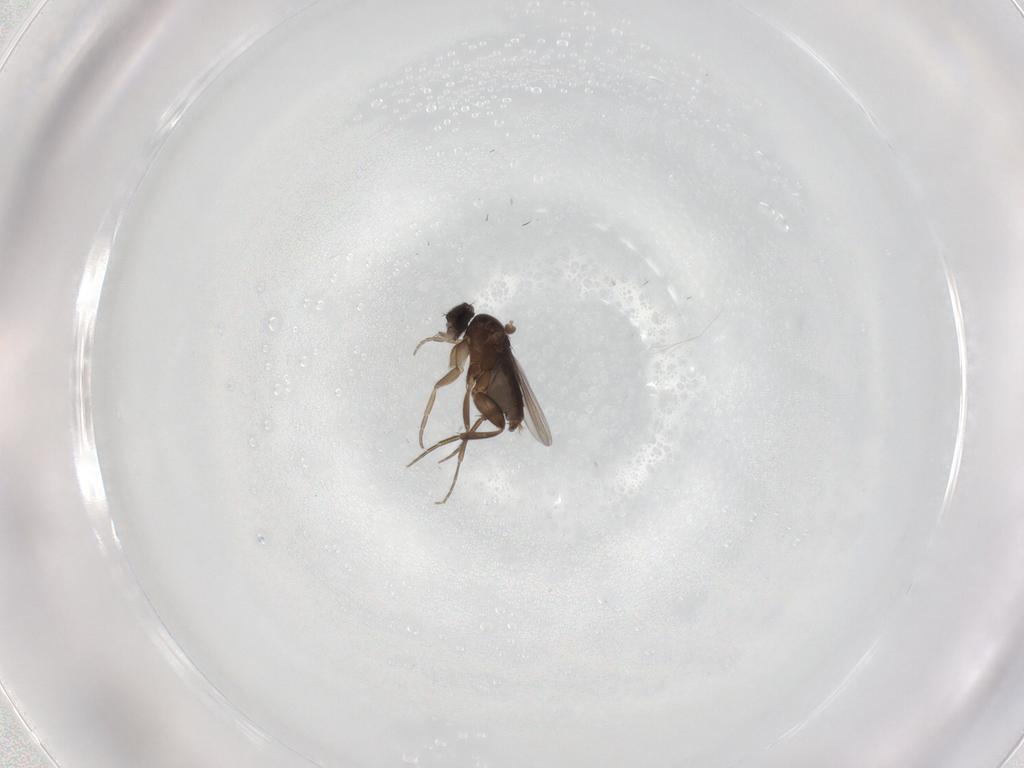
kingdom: Animalia
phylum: Arthropoda
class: Insecta
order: Diptera
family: Phoridae
